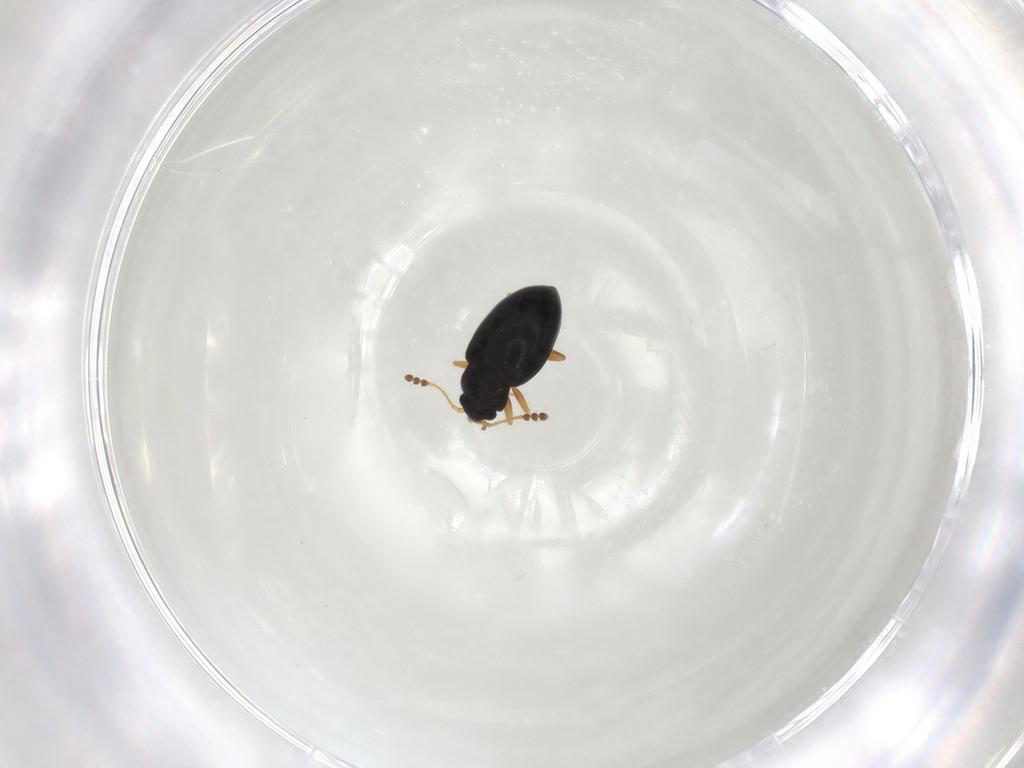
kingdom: Animalia
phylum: Arthropoda
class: Insecta
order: Coleoptera
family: Erotylidae
